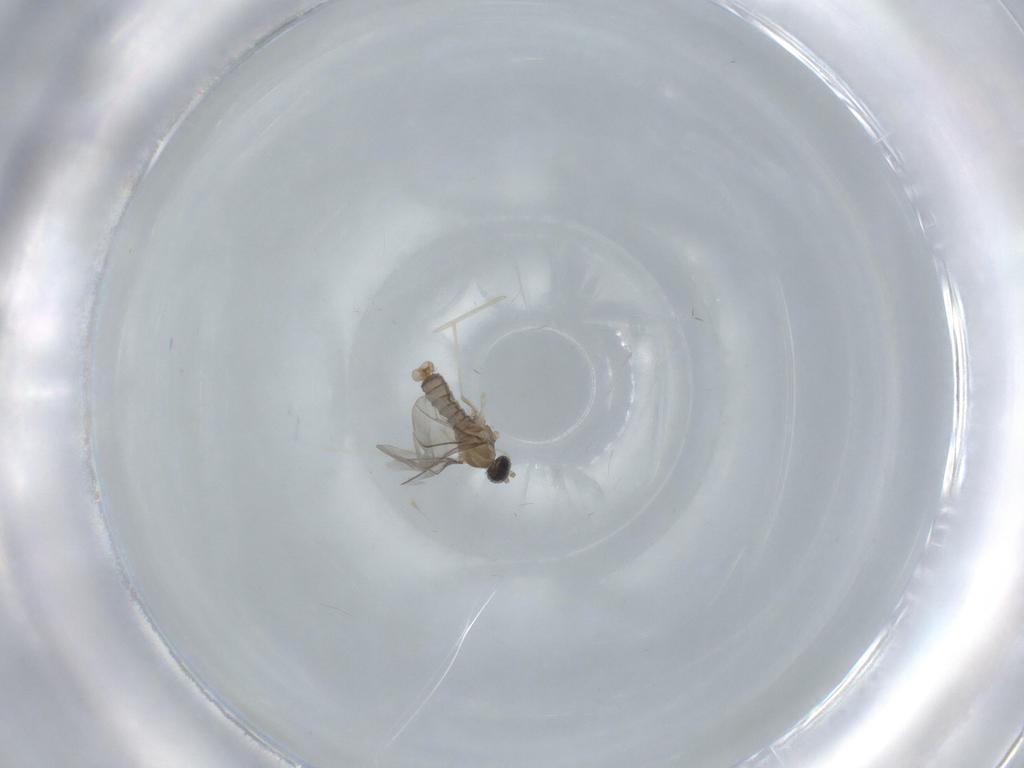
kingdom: Animalia
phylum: Arthropoda
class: Insecta
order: Diptera
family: Cecidomyiidae
